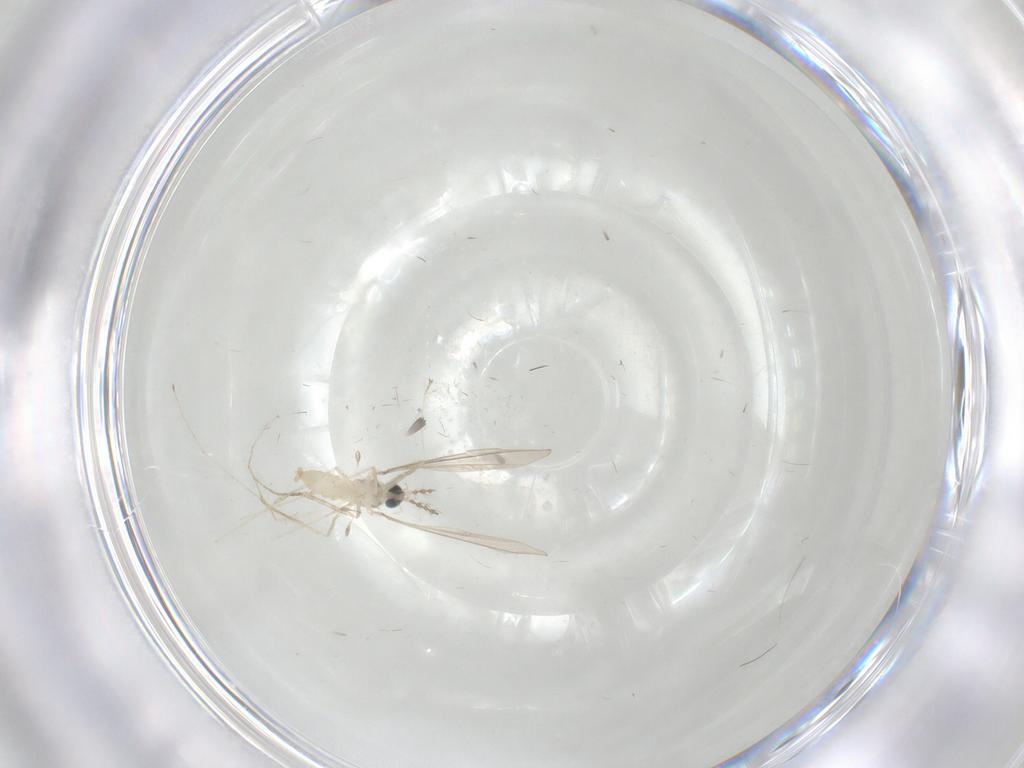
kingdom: Animalia
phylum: Arthropoda
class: Insecta
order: Diptera
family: Cecidomyiidae
